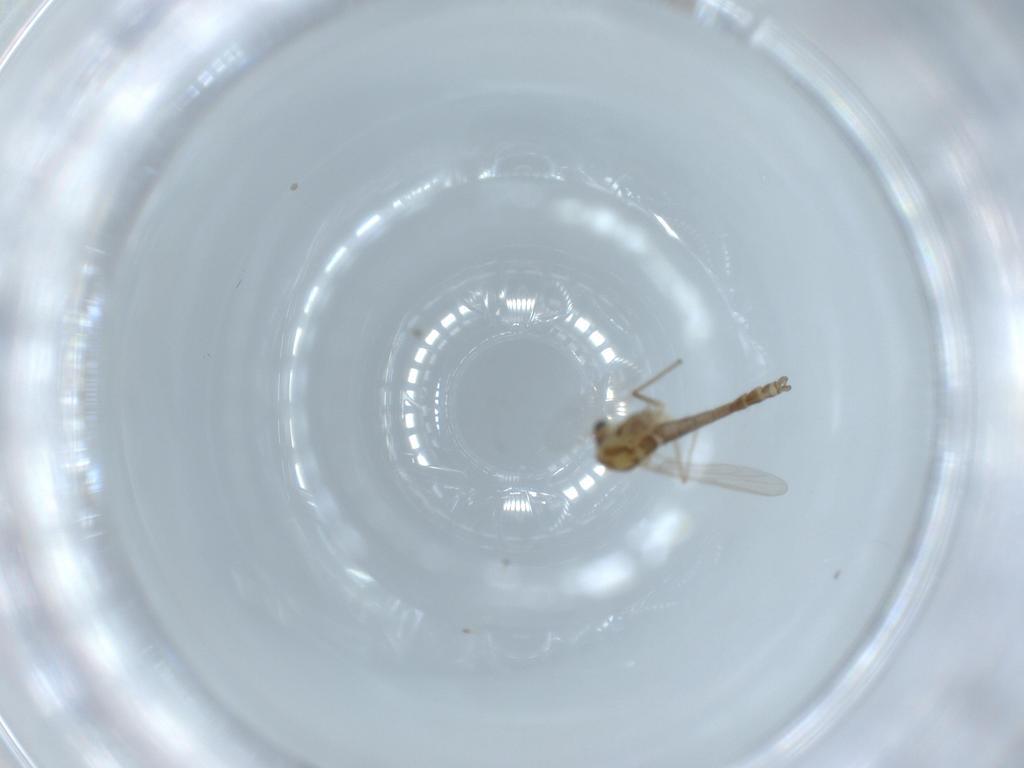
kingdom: Animalia
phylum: Arthropoda
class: Insecta
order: Diptera
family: Chironomidae
